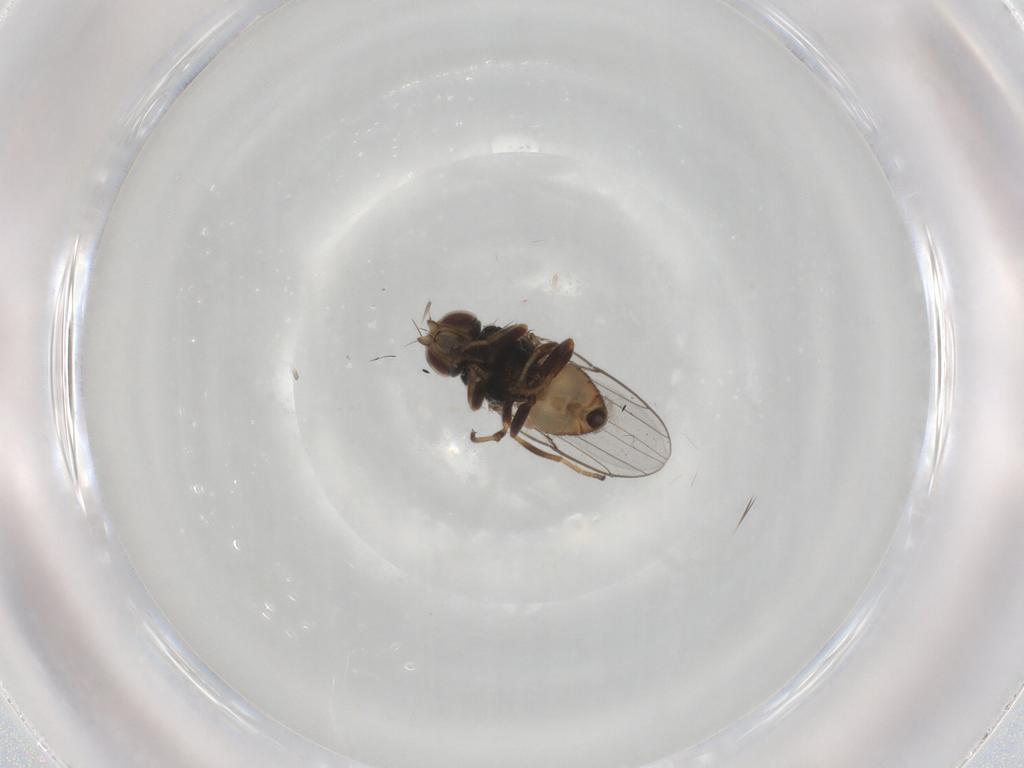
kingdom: Animalia
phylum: Arthropoda
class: Insecta
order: Diptera
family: Chloropidae
